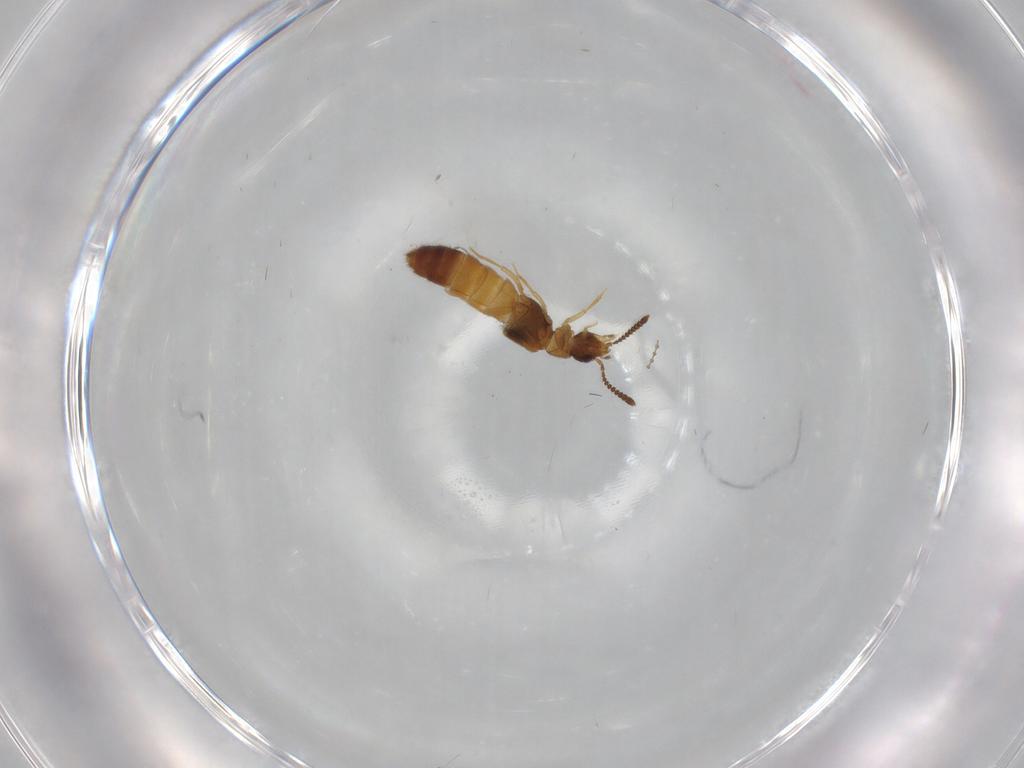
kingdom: Animalia
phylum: Arthropoda
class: Insecta
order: Coleoptera
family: Staphylinidae
